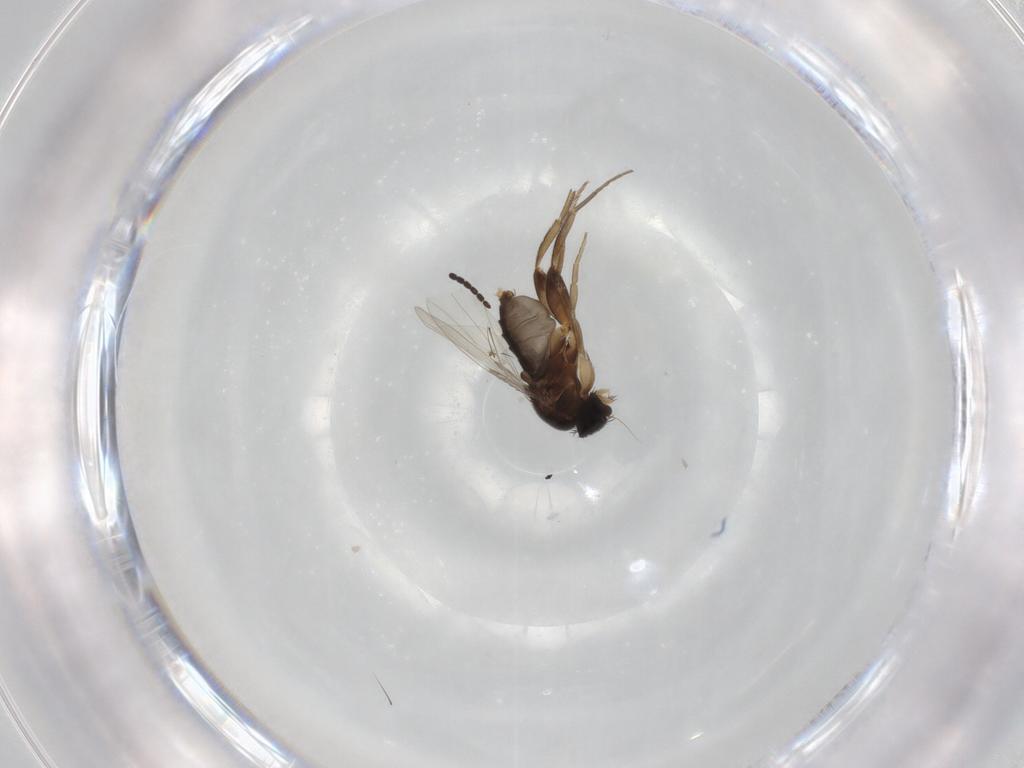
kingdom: Animalia
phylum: Arthropoda
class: Insecta
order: Diptera
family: Phoridae
